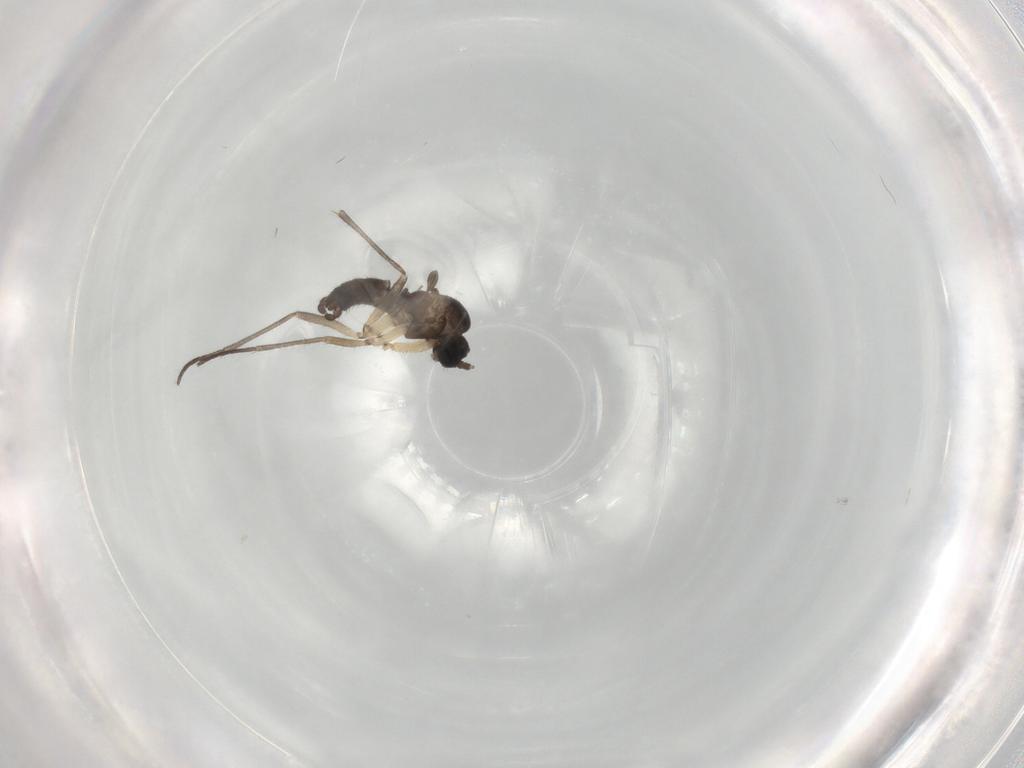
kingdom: Animalia
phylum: Arthropoda
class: Insecta
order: Diptera
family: Sciaridae
